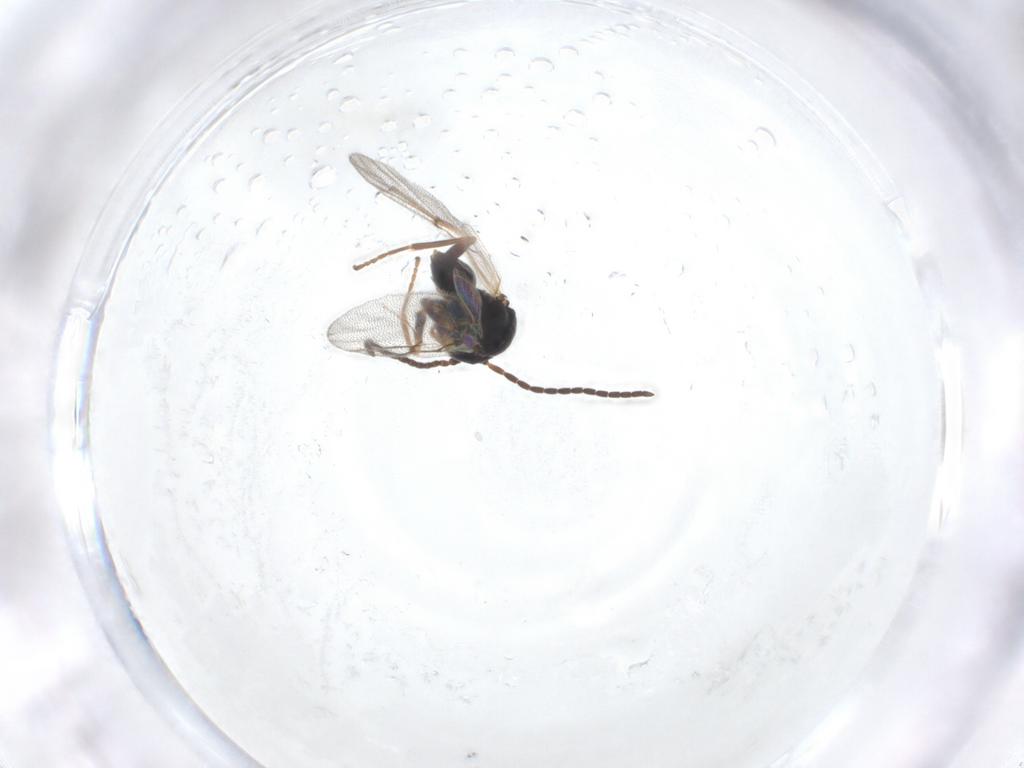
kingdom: Animalia
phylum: Arthropoda
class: Insecta
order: Hymenoptera
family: Cynipidae
